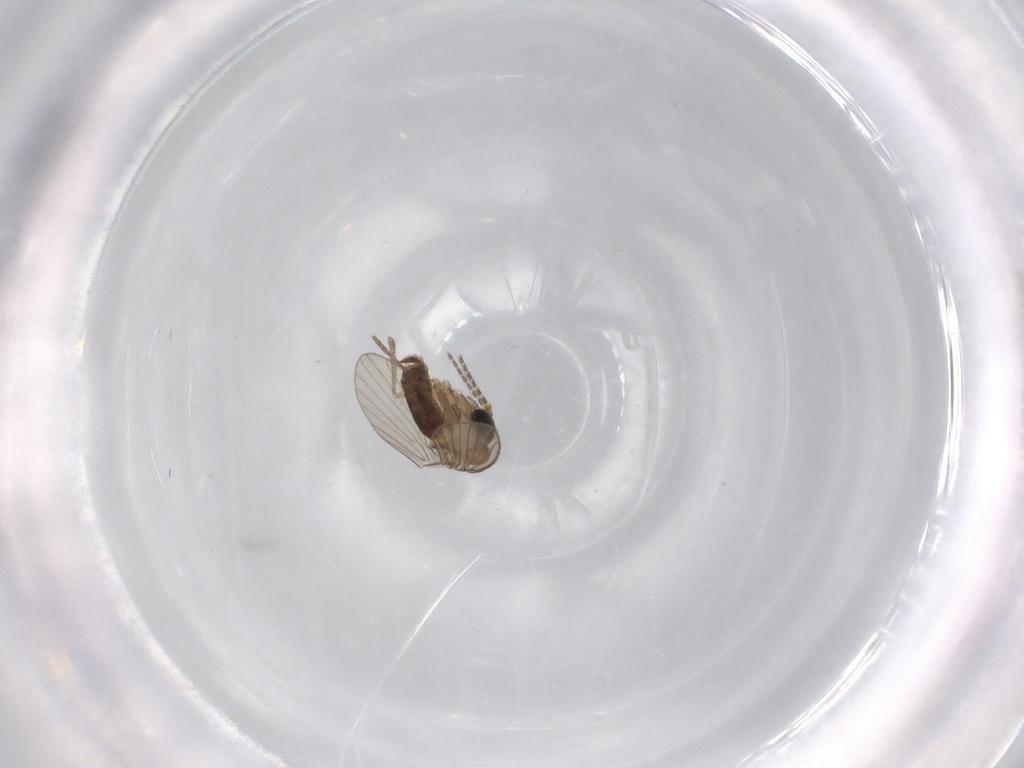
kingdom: Animalia
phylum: Arthropoda
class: Insecta
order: Diptera
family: Psychodidae
